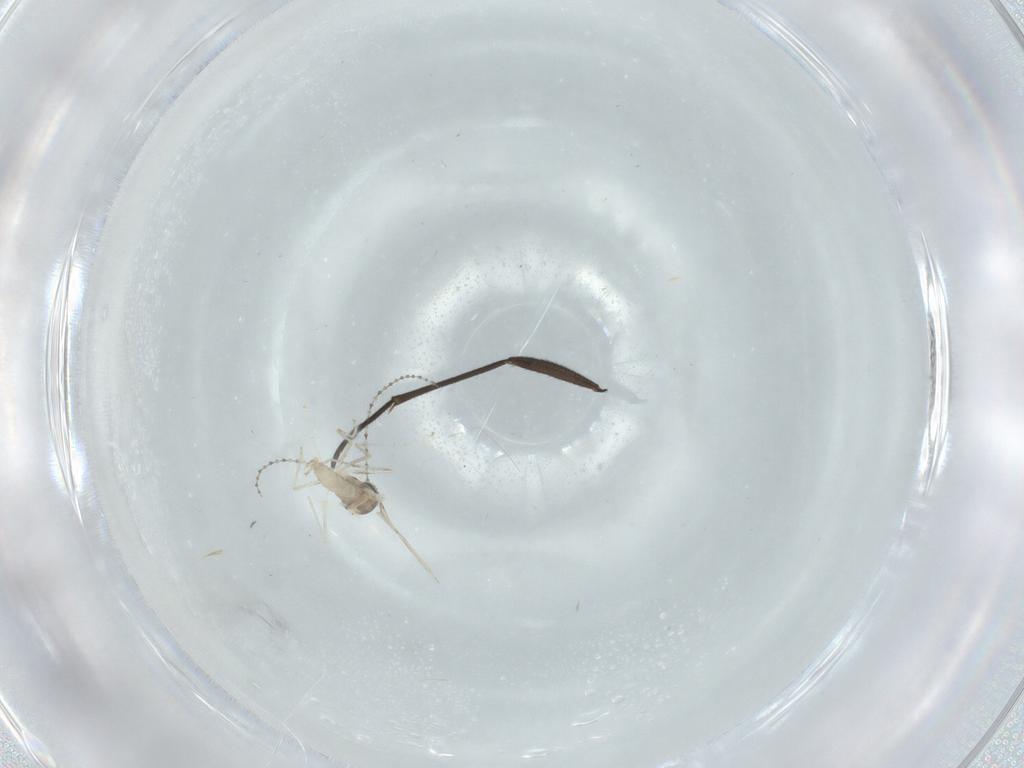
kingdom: Animalia
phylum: Arthropoda
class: Insecta
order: Diptera
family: Cecidomyiidae
